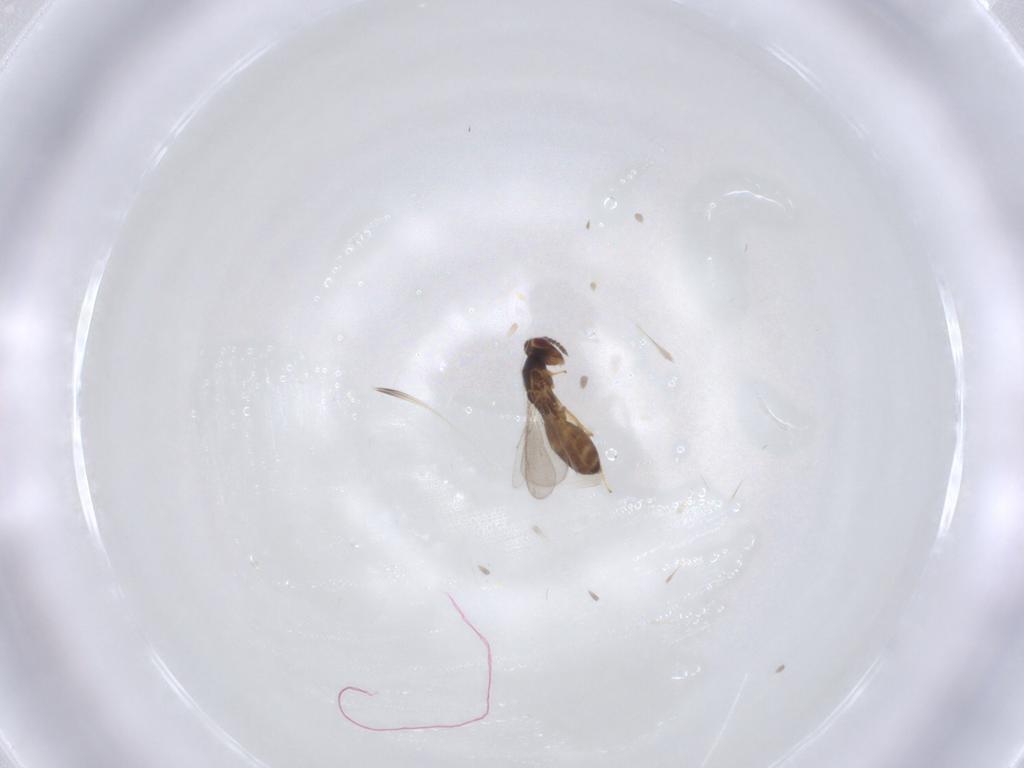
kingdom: Animalia
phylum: Arthropoda
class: Insecta
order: Hymenoptera
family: Eulophidae
